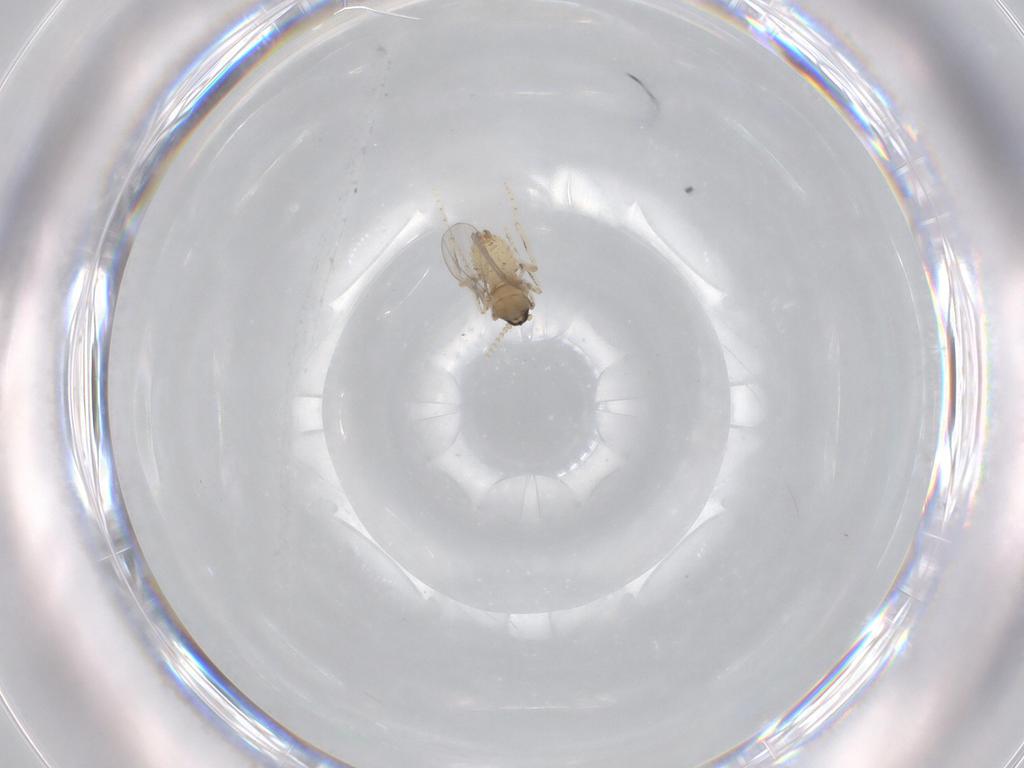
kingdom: Animalia
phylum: Arthropoda
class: Insecta
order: Diptera
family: Cecidomyiidae
